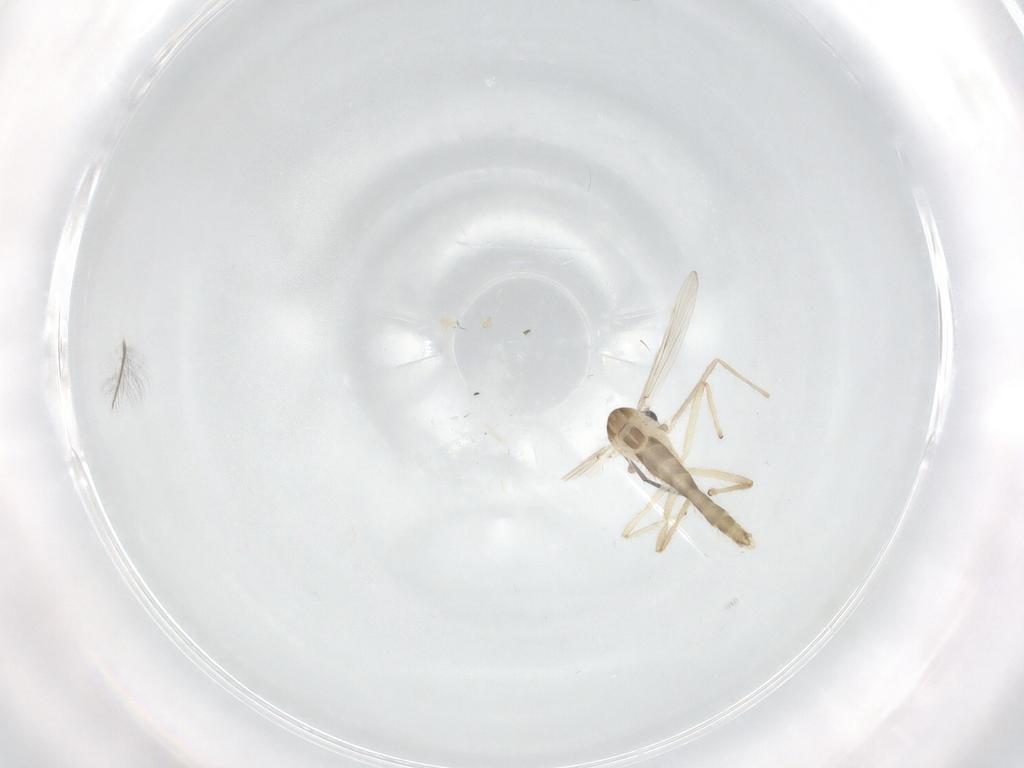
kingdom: Animalia
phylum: Arthropoda
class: Insecta
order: Diptera
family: Chironomidae
